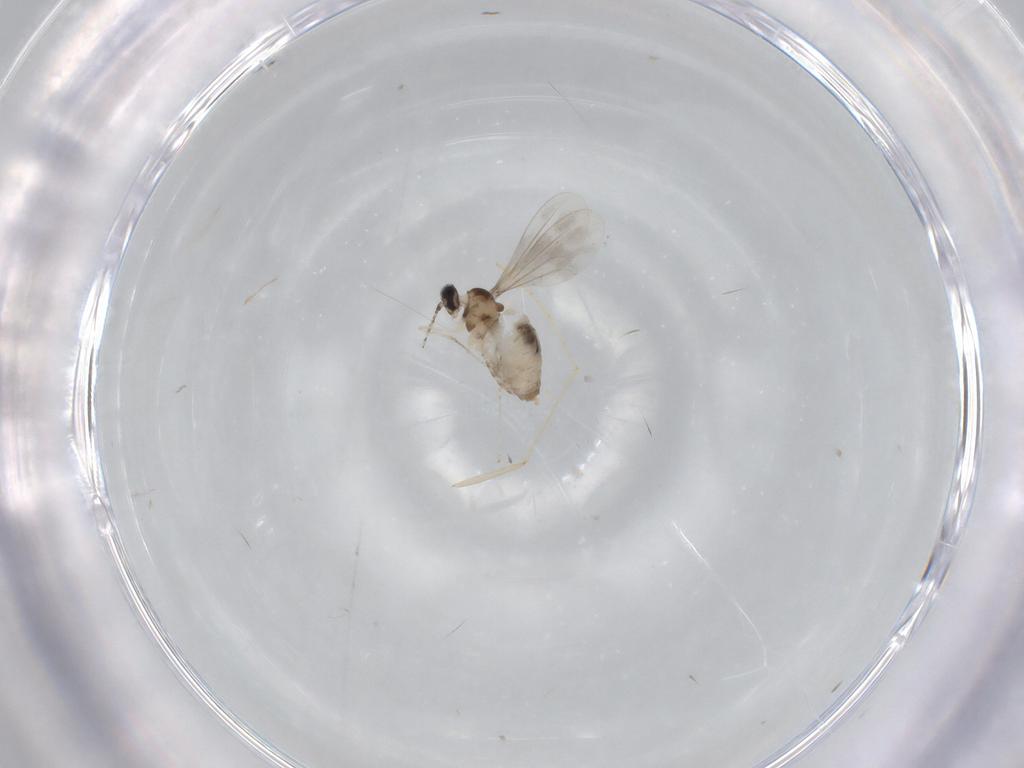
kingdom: Animalia
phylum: Arthropoda
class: Insecta
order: Diptera
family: Cecidomyiidae
